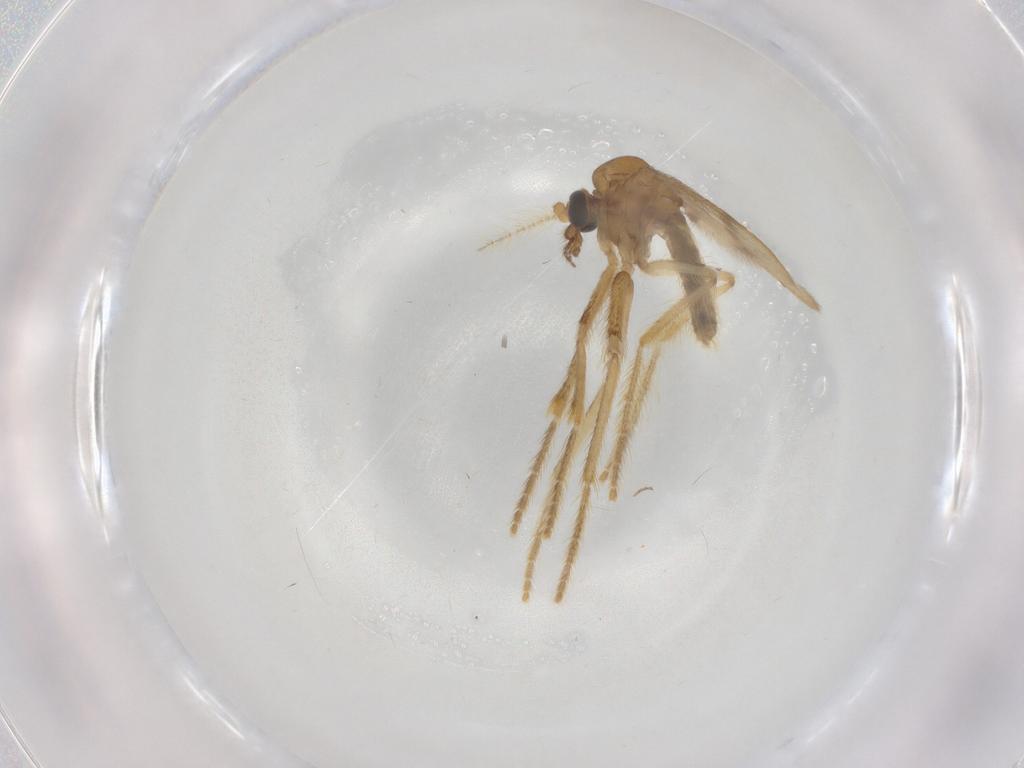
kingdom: Animalia
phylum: Arthropoda
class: Insecta
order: Diptera
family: Corethrellidae
